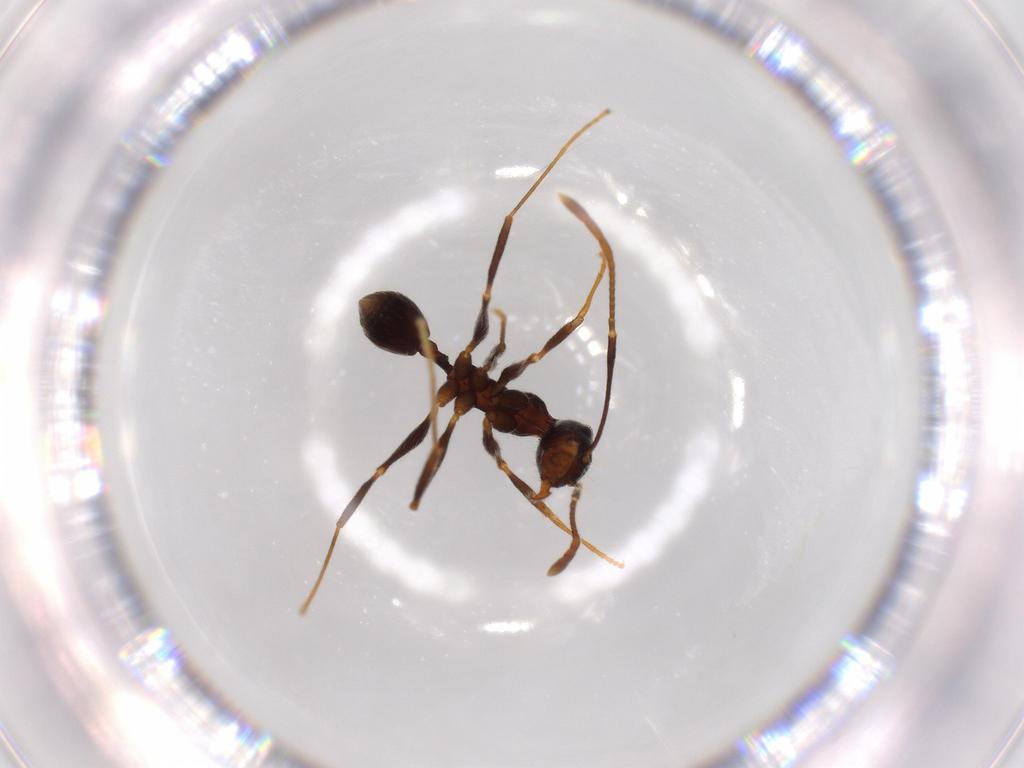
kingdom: Animalia
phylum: Arthropoda
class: Insecta
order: Hymenoptera
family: Formicidae
